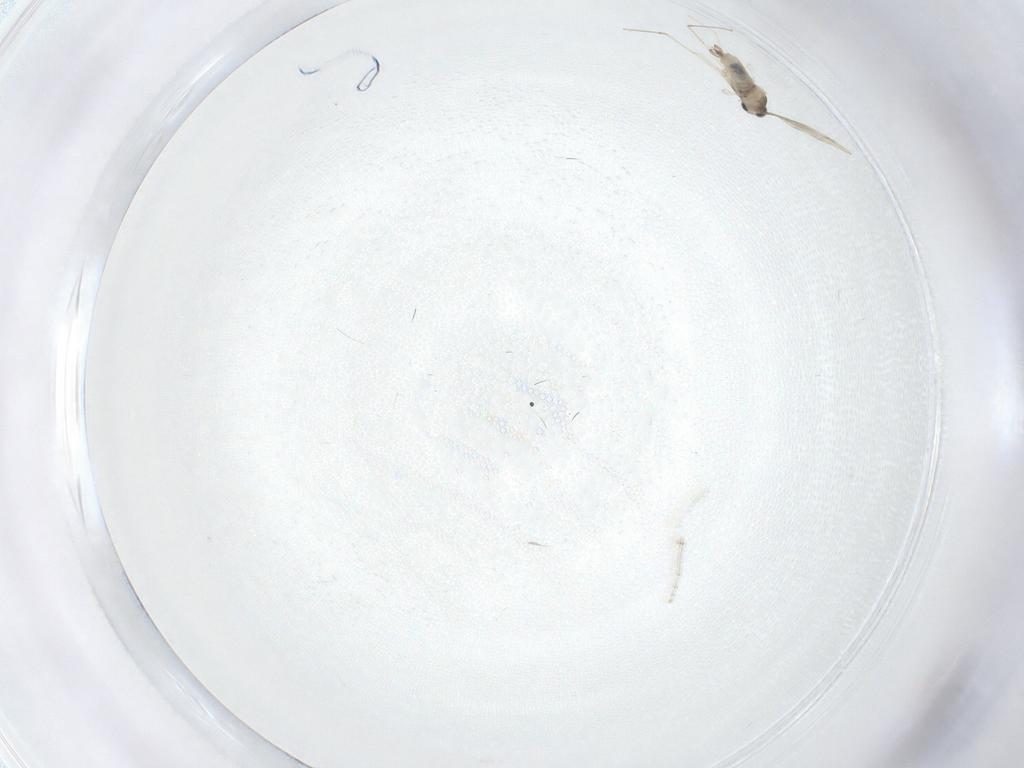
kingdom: Animalia
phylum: Arthropoda
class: Insecta
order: Diptera
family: Cecidomyiidae
